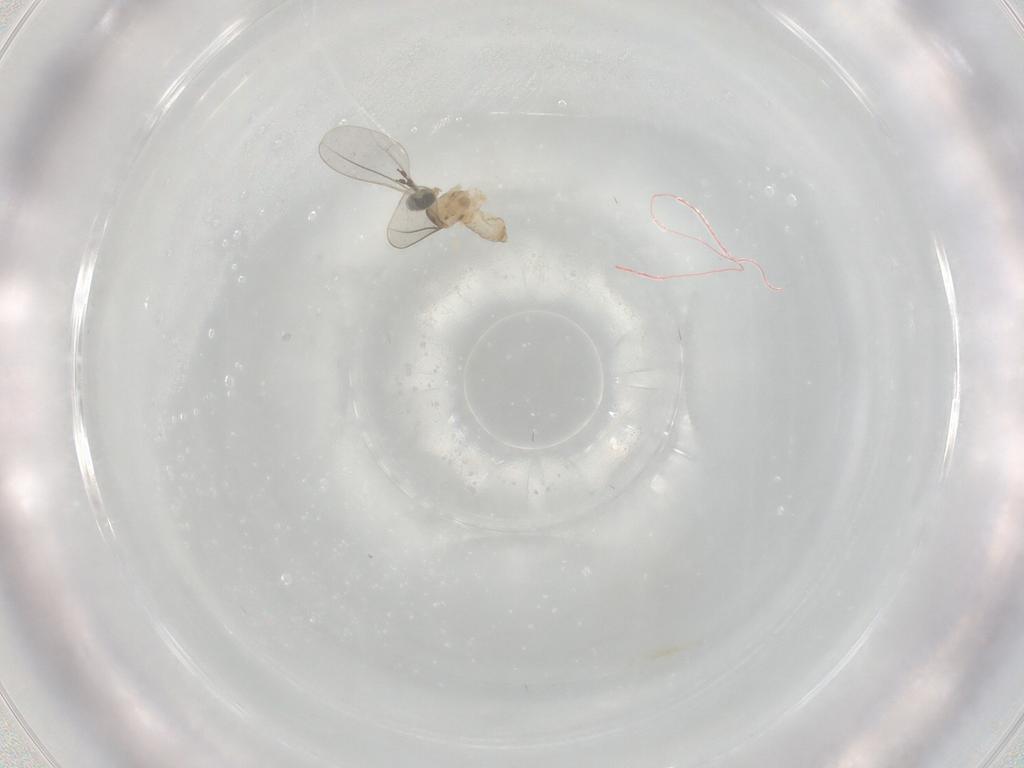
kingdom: Animalia
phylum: Arthropoda
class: Insecta
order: Diptera
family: Cecidomyiidae
